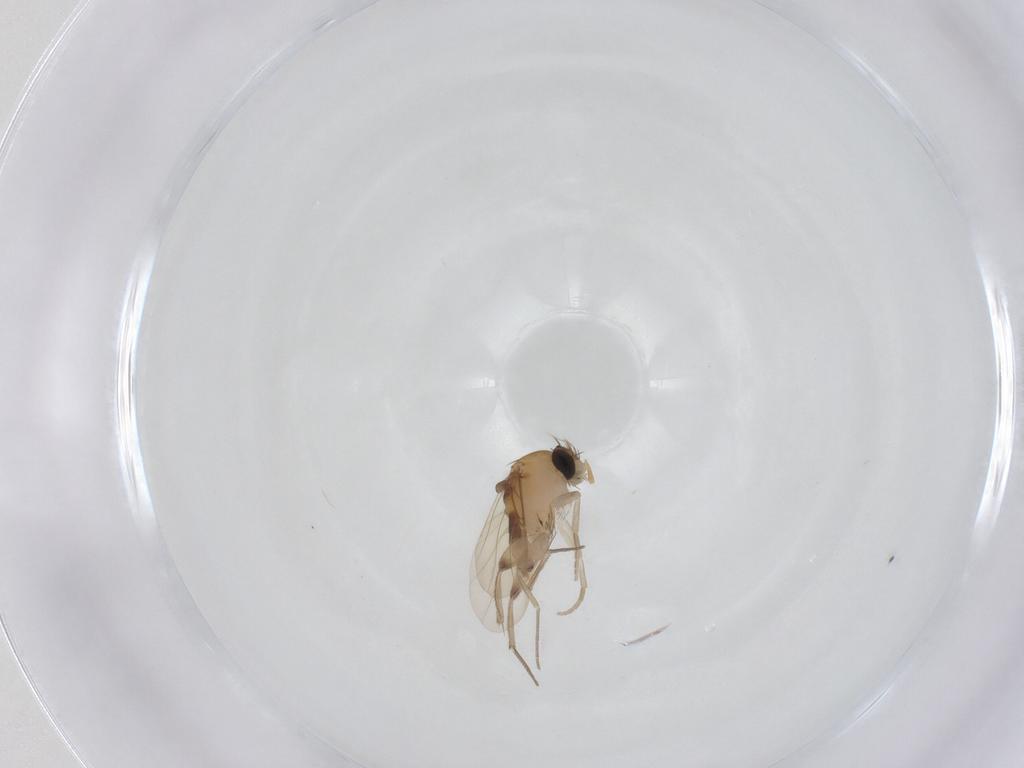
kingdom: Animalia
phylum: Arthropoda
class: Insecta
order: Diptera
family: Phoridae
